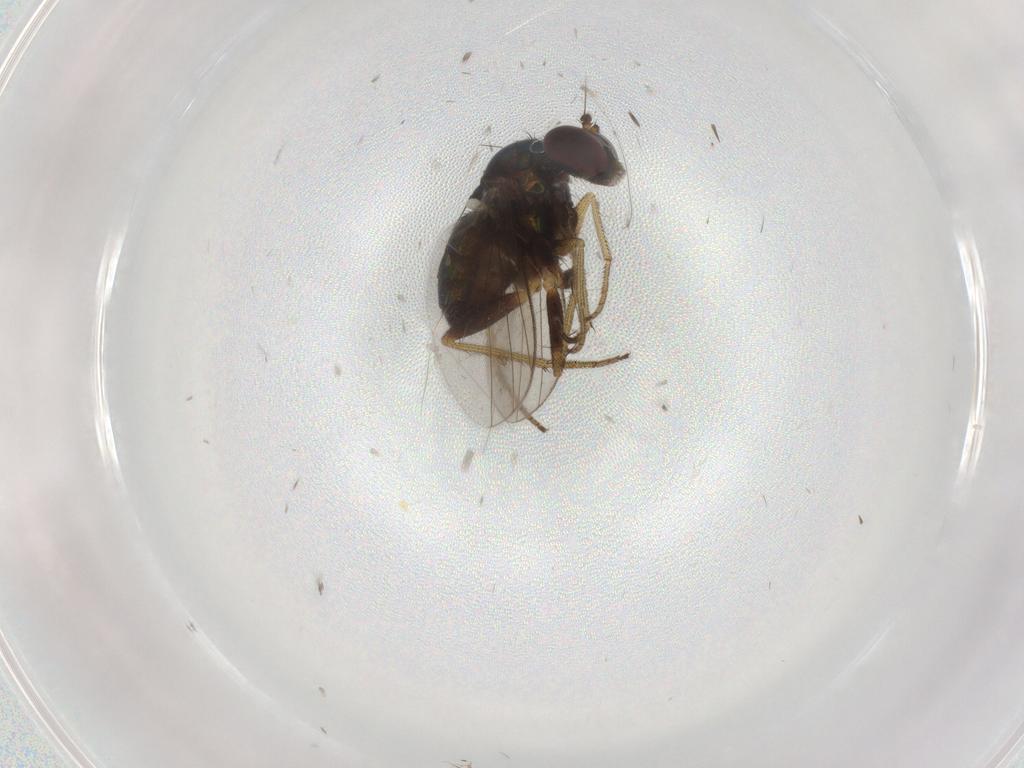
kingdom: Animalia
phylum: Arthropoda
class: Insecta
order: Diptera
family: Dolichopodidae
